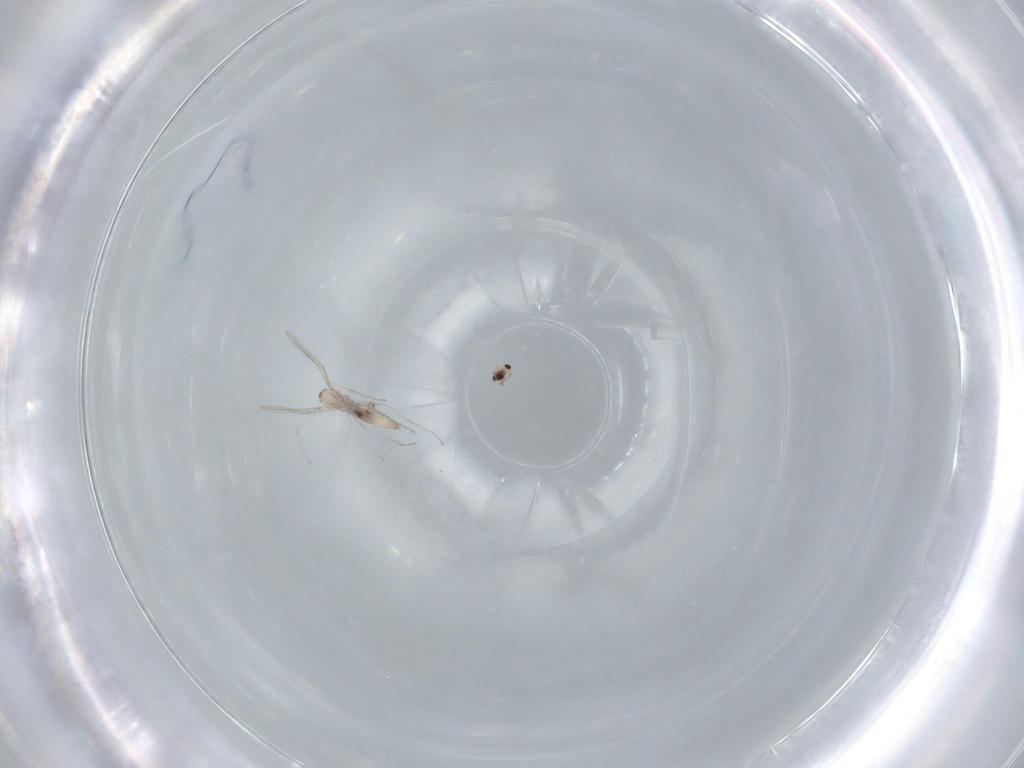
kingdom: Animalia
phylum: Arthropoda
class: Insecta
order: Diptera
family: Cecidomyiidae
